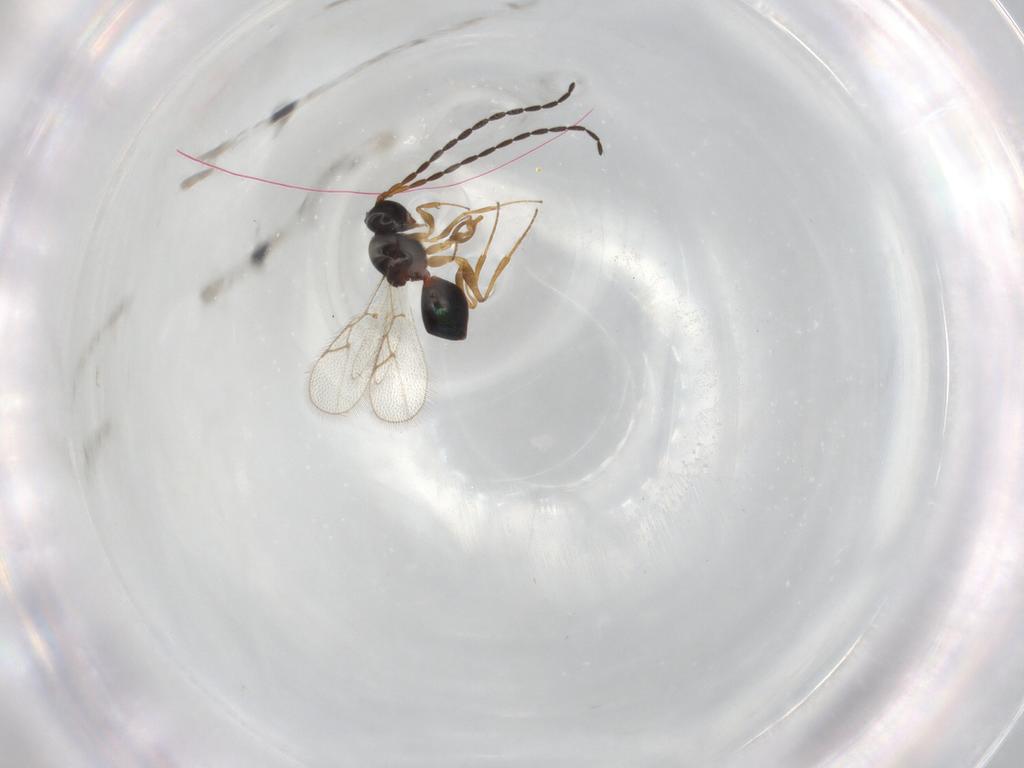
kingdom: Animalia
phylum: Arthropoda
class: Insecta
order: Hymenoptera
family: Figitidae
